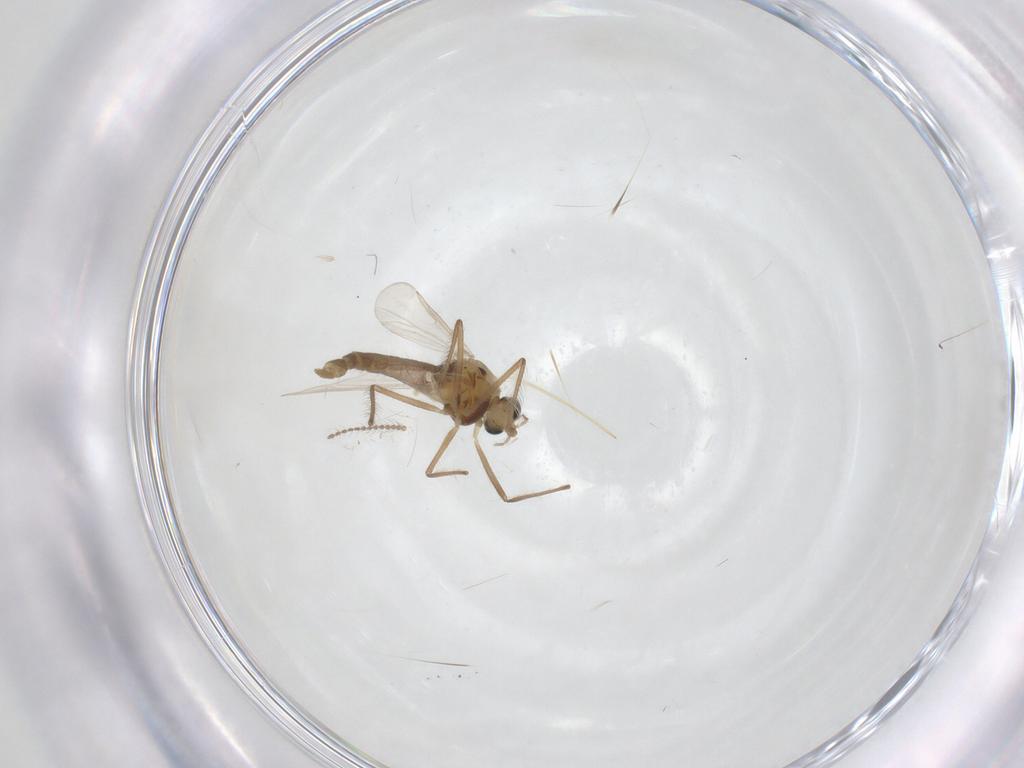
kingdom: Animalia
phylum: Arthropoda
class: Insecta
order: Diptera
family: Chironomidae
